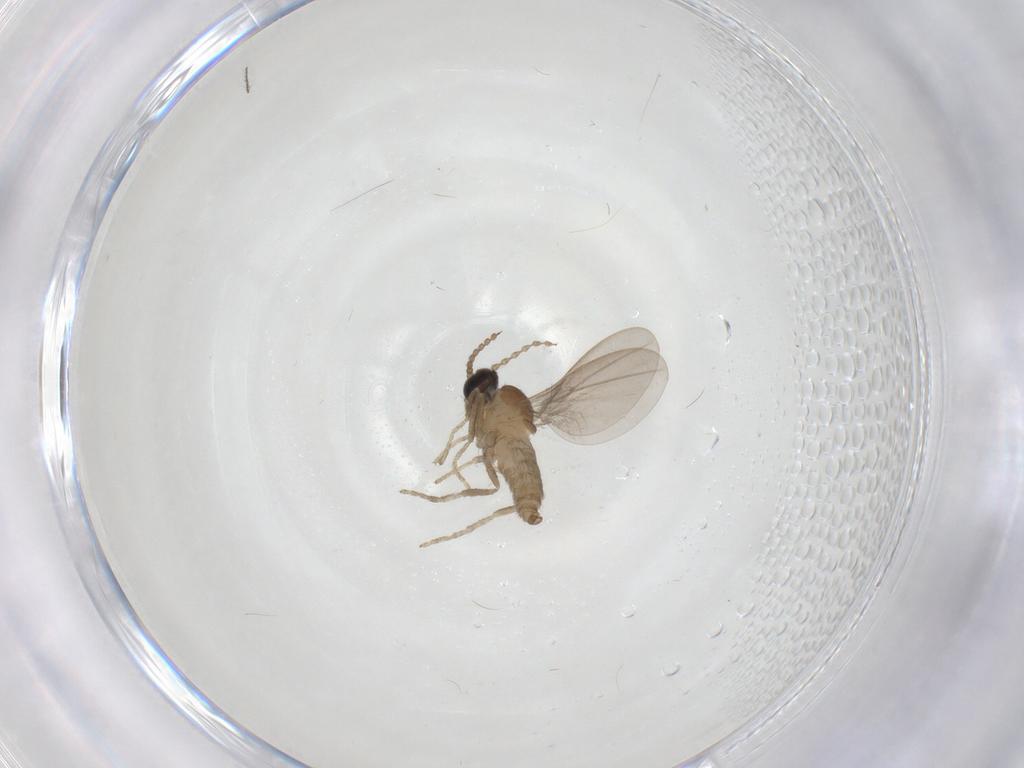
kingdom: Animalia
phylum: Arthropoda
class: Insecta
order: Diptera
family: Cecidomyiidae
